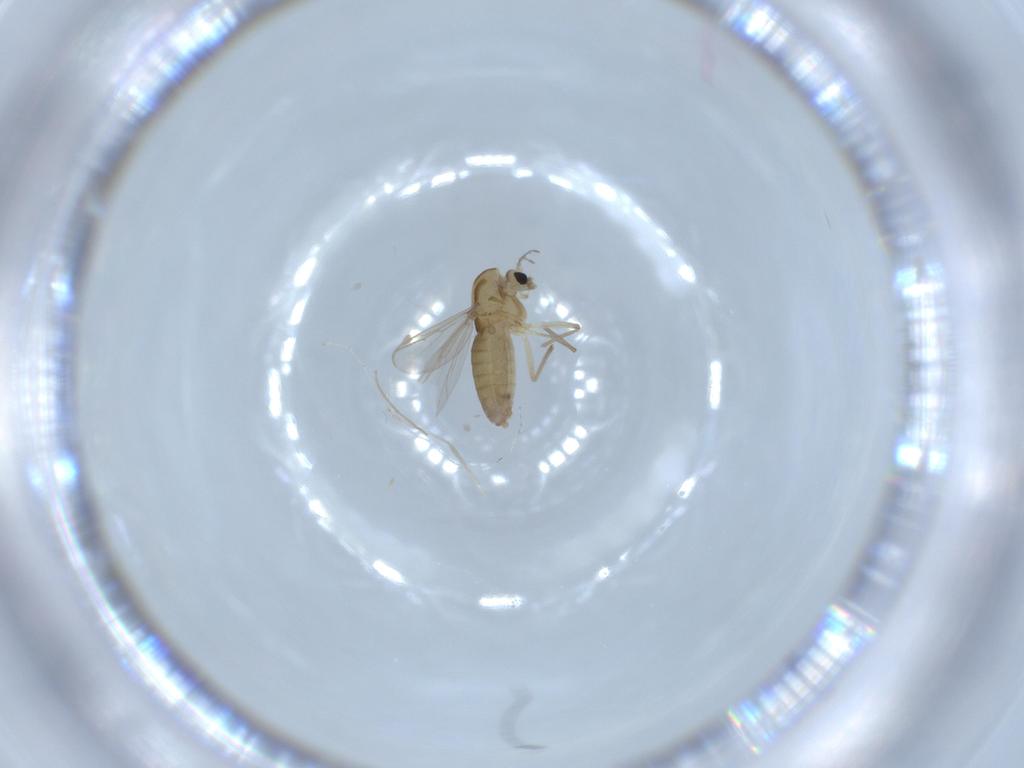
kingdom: Animalia
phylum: Arthropoda
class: Insecta
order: Diptera
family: Chironomidae
